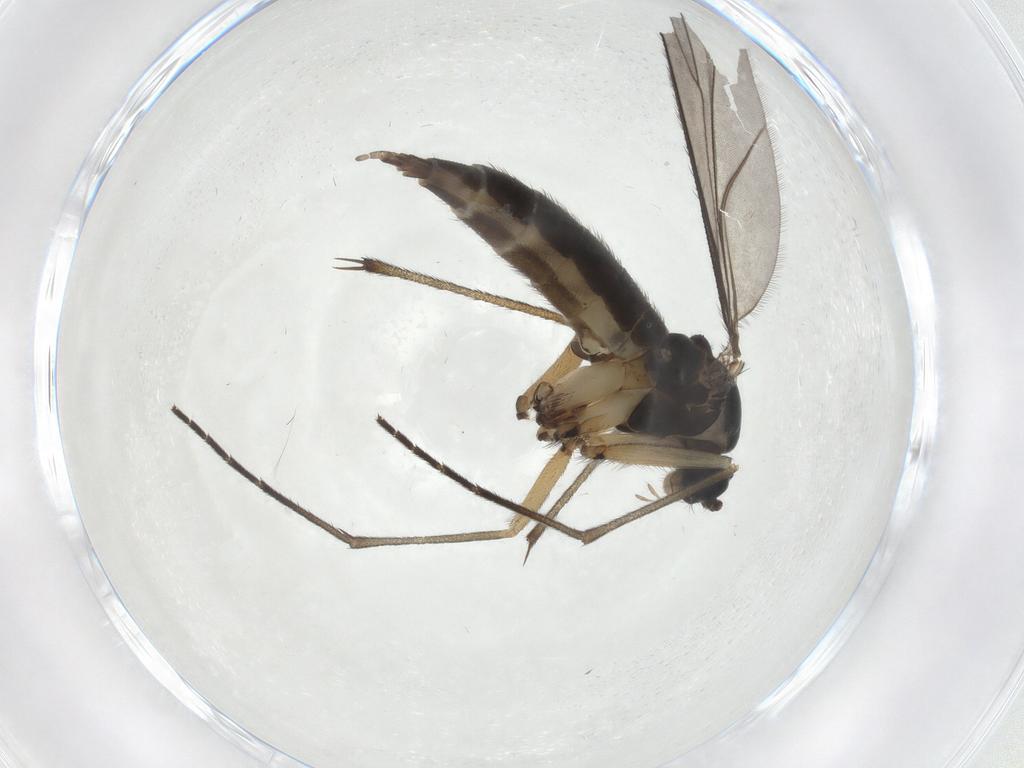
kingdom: Animalia
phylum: Arthropoda
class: Insecta
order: Diptera
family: Sciaridae
